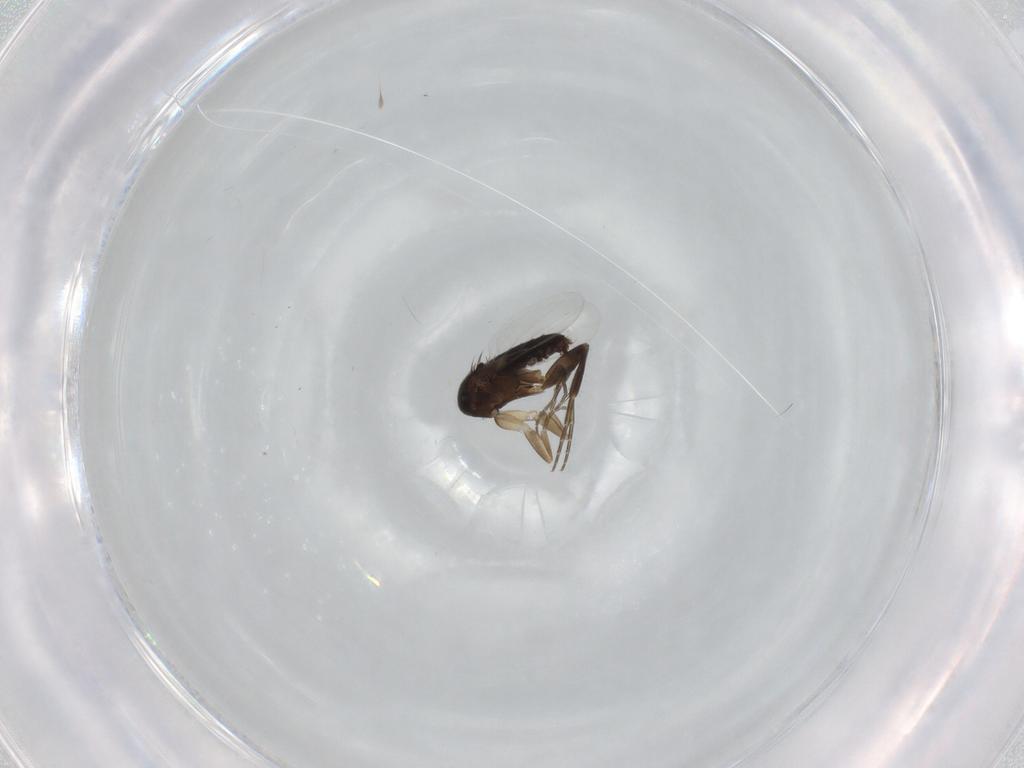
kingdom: Animalia
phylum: Arthropoda
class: Insecta
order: Diptera
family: Phoridae
